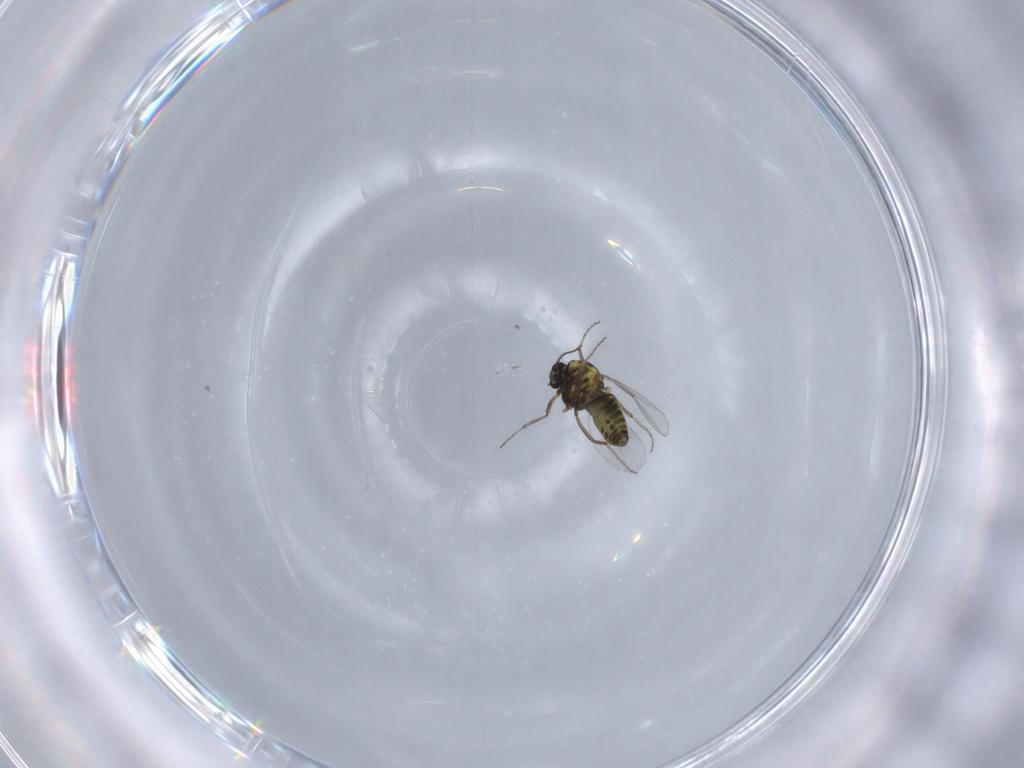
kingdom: Animalia
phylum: Arthropoda
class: Insecta
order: Diptera
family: Ceratopogonidae
